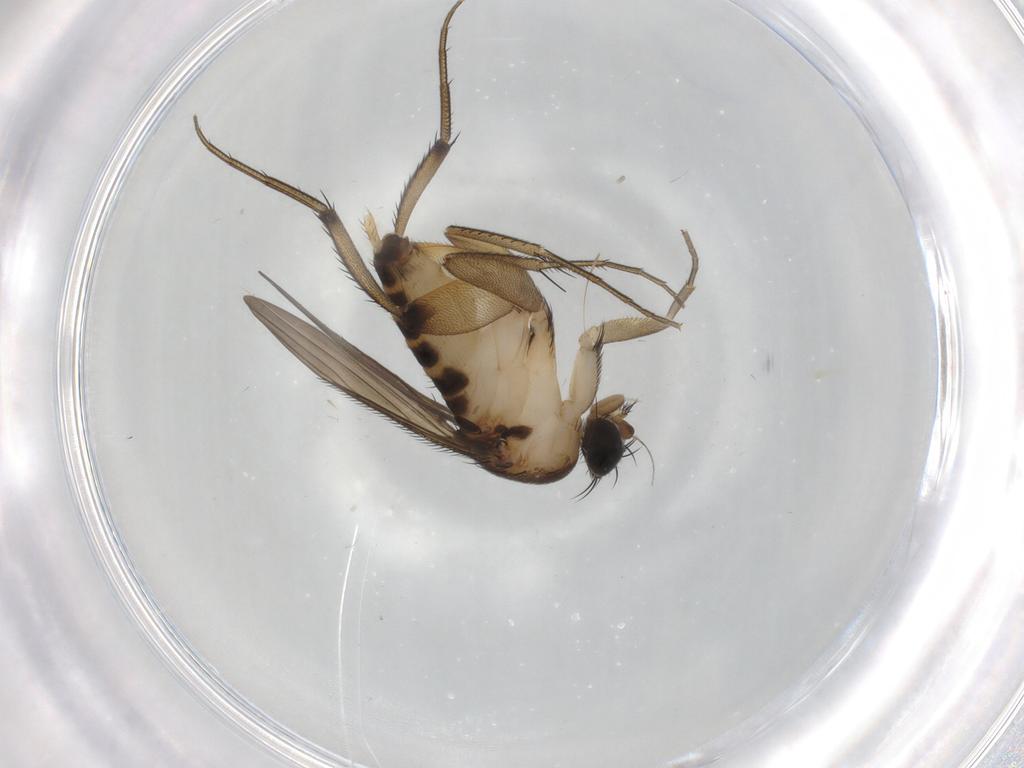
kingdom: Animalia
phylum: Arthropoda
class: Insecta
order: Diptera
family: Phoridae
